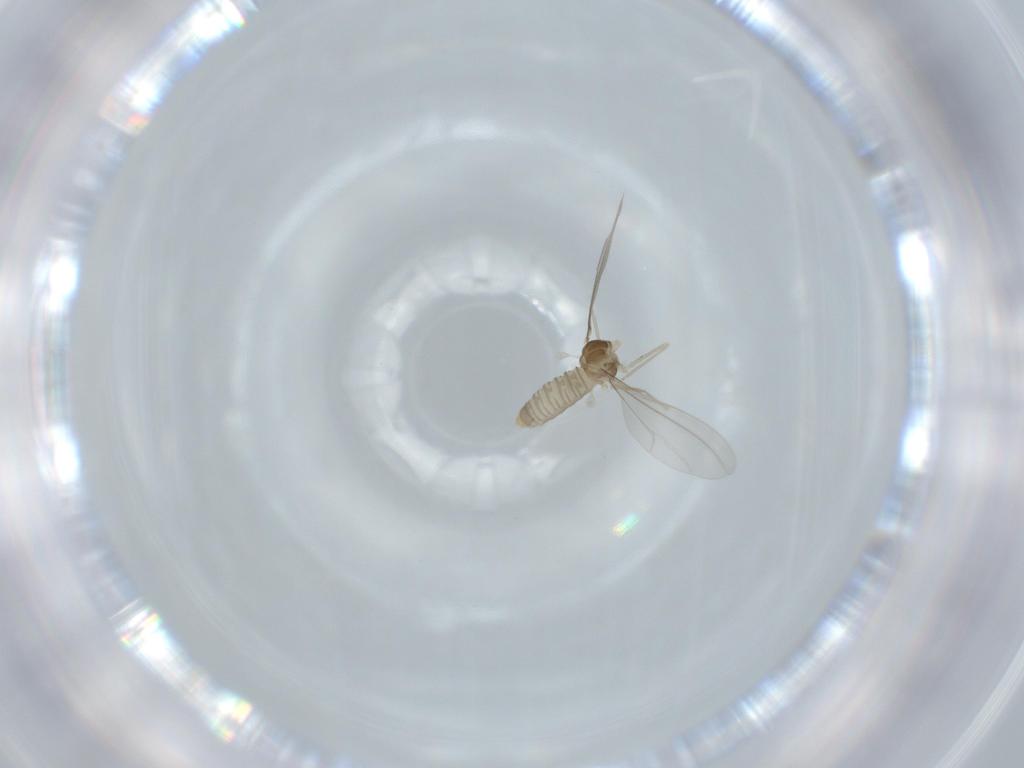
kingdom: Animalia
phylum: Arthropoda
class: Insecta
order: Diptera
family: Cecidomyiidae
